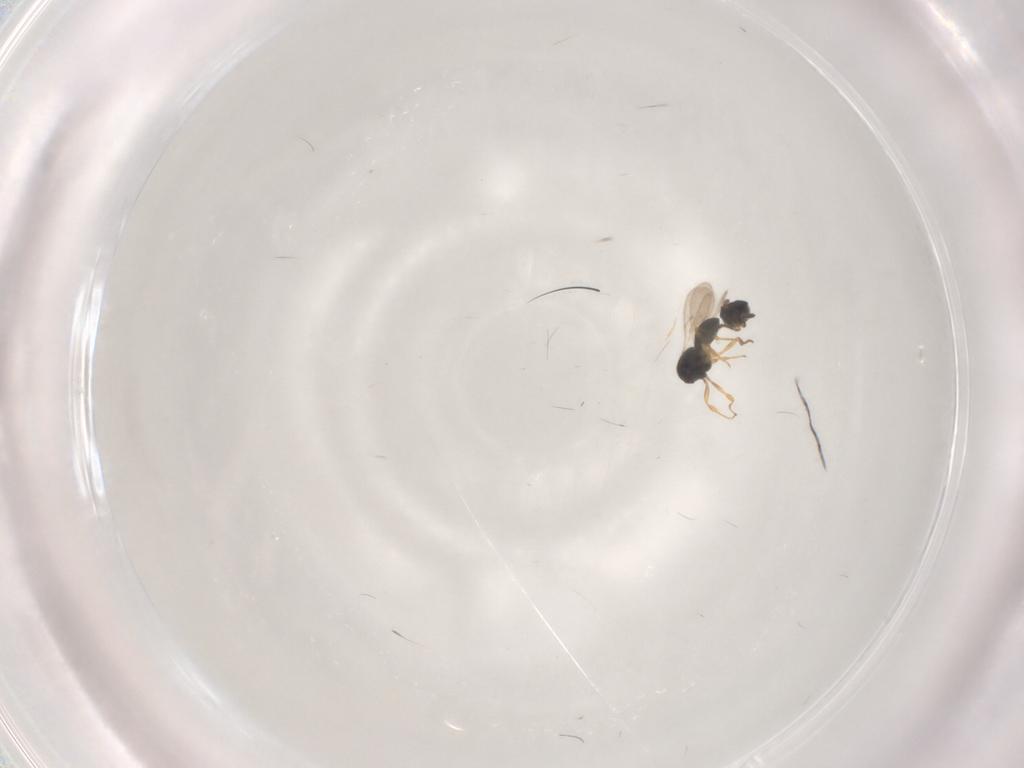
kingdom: Animalia
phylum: Arthropoda
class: Insecta
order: Hymenoptera
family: Scelionidae
